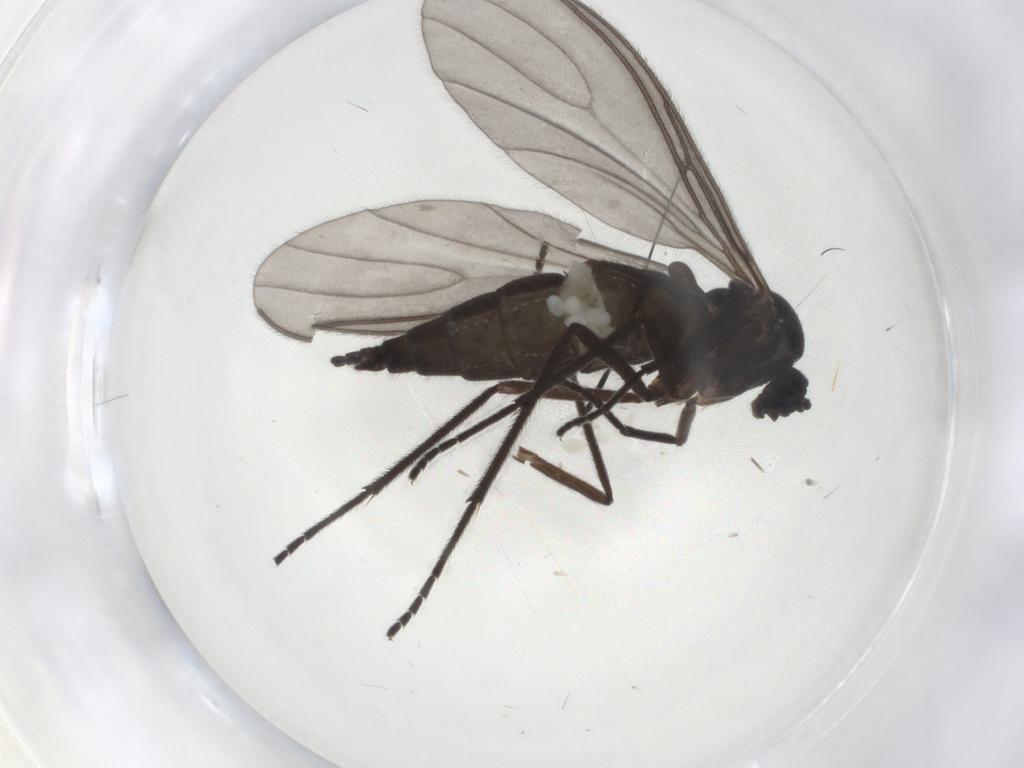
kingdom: Animalia
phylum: Arthropoda
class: Insecta
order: Diptera
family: Sciaridae
